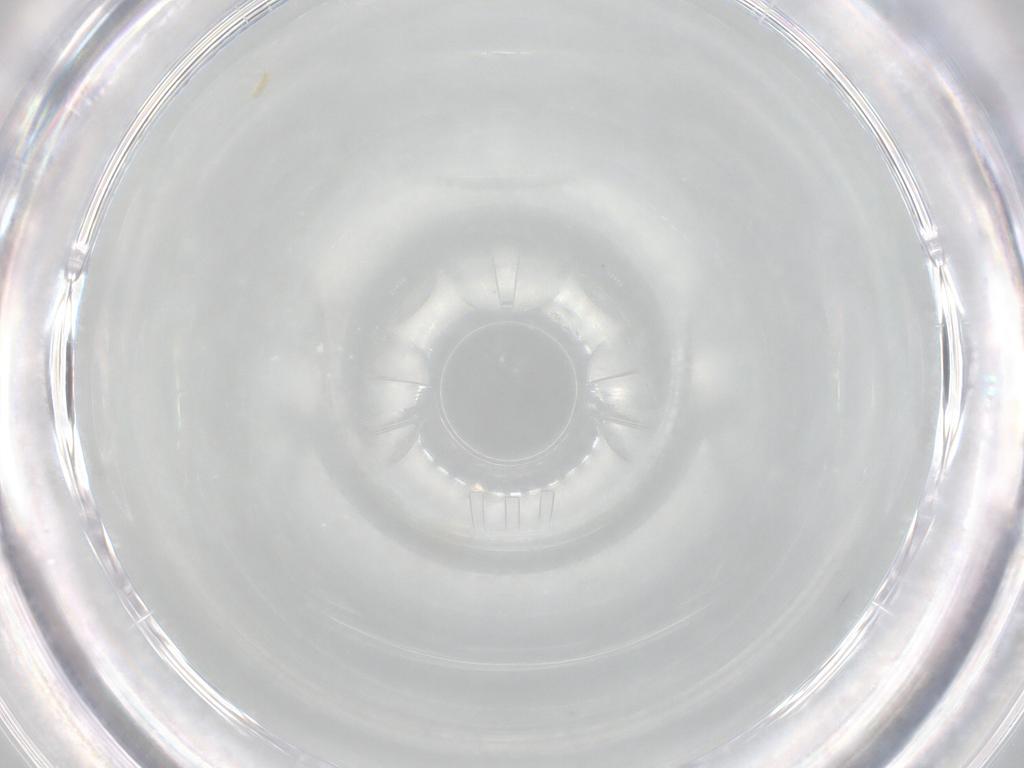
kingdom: Animalia
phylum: Arthropoda
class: Arachnida
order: Trombidiformes
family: Tetranychidae
